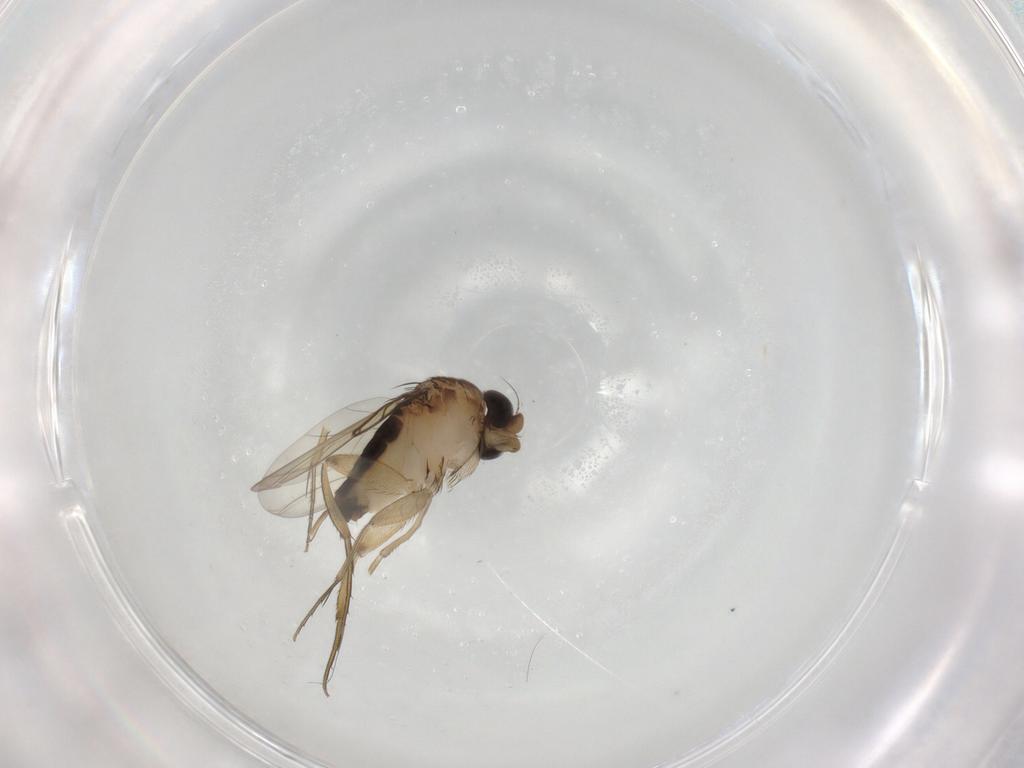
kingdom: Animalia
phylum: Arthropoda
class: Insecta
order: Diptera
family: Phoridae
